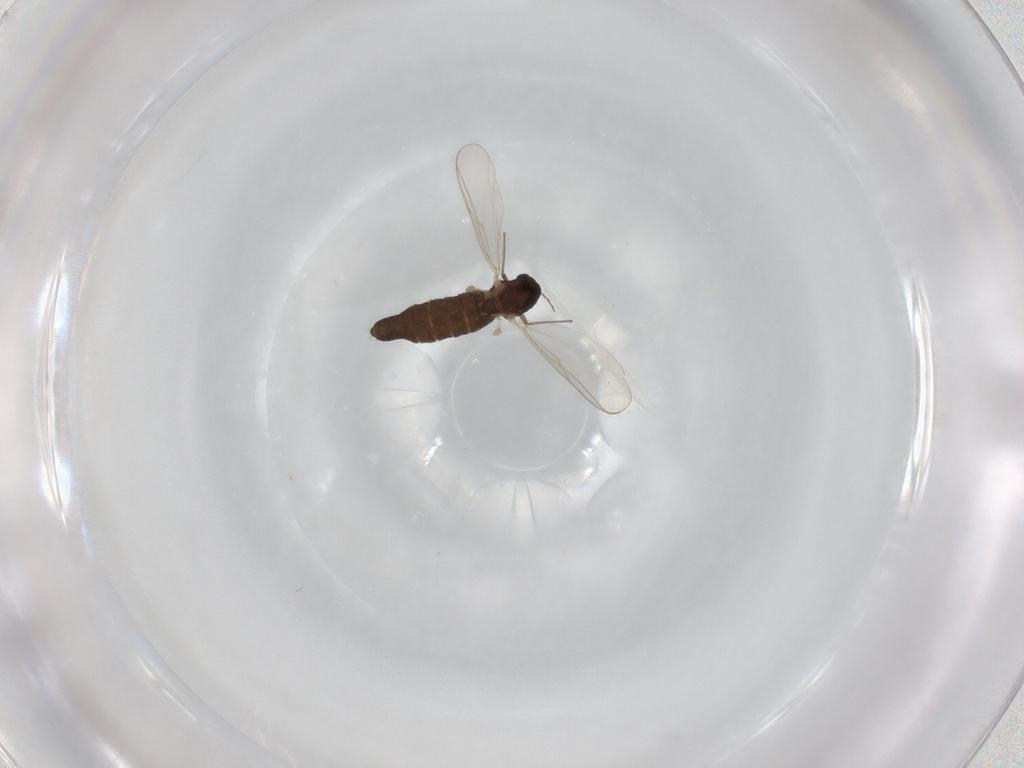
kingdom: Animalia
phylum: Arthropoda
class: Insecta
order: Diptera
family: Chironomidae
